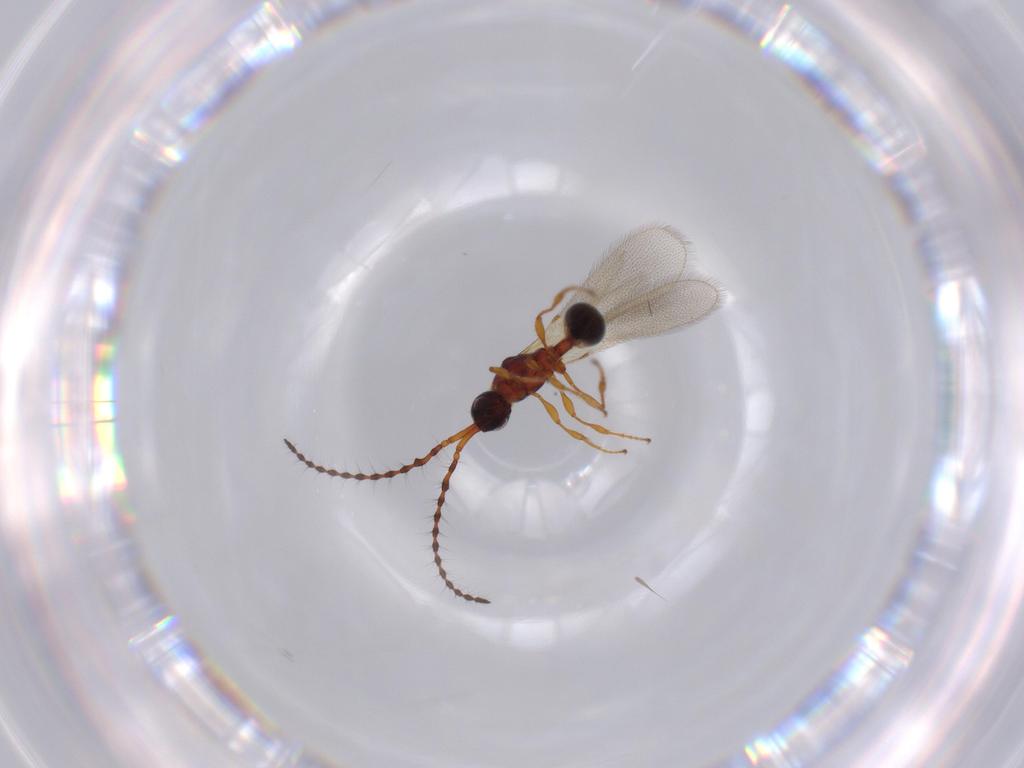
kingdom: Animalia
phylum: Arthropoda
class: Insecta
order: Hymenoptera
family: Diapriidae
